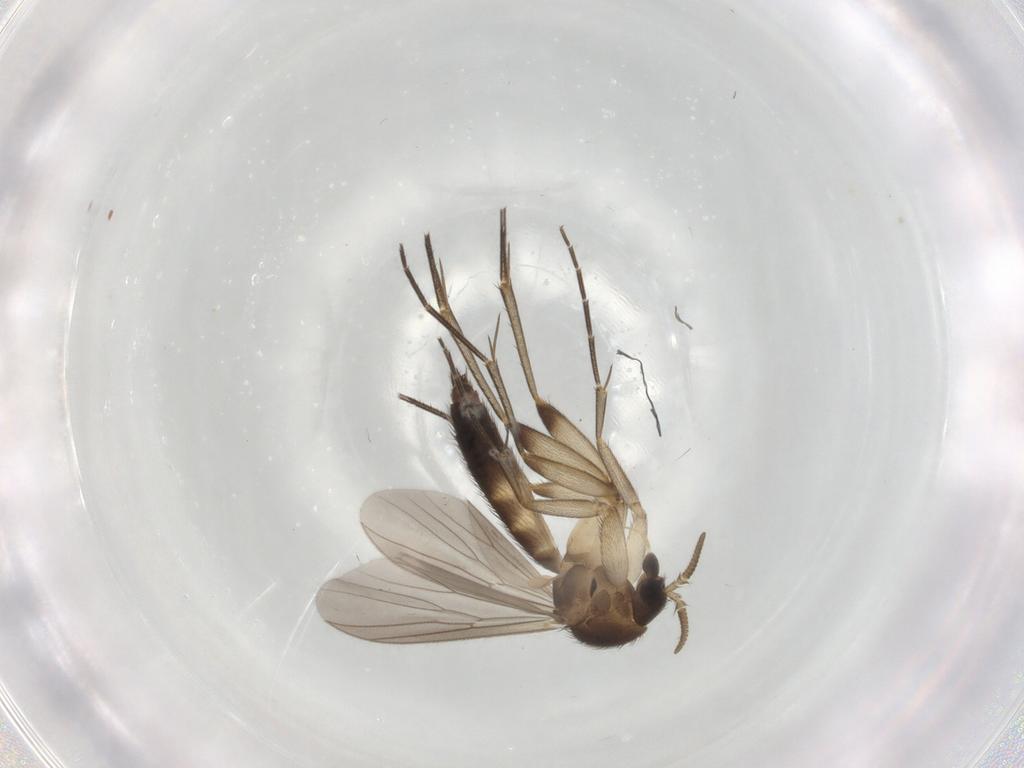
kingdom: Animalia
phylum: Arthropoda
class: Insecta
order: Diptera
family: Mycetophilidae
